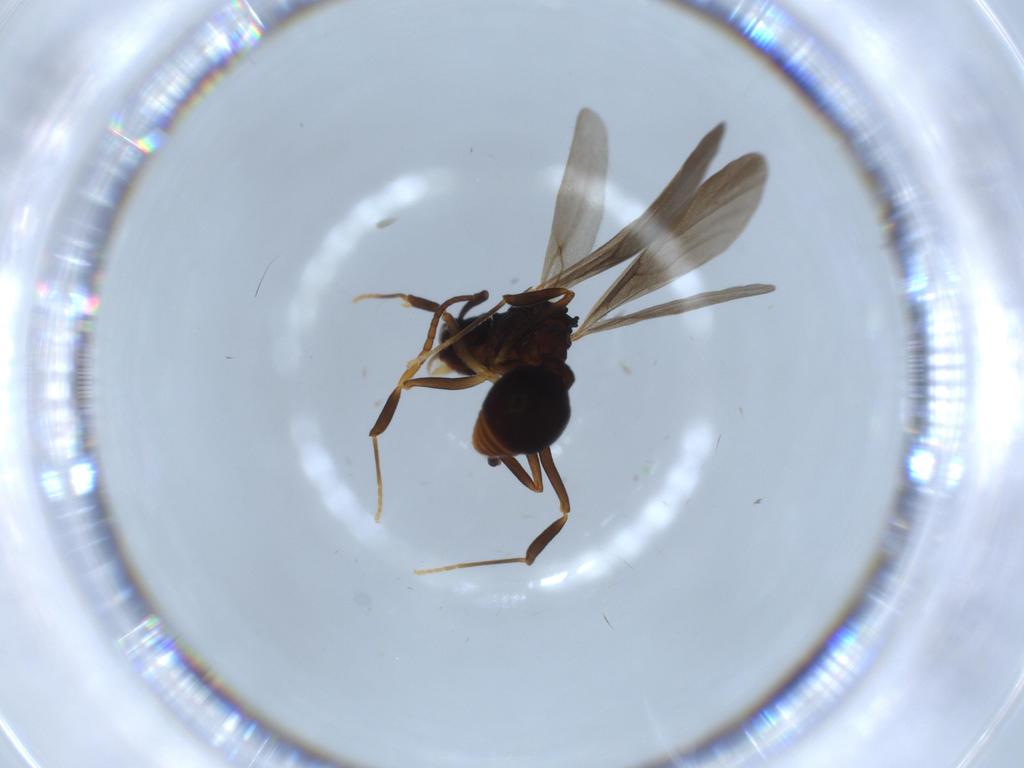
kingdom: Animalia
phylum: Arthropoda
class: Insecta
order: Hymenoptera
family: Formicidae
